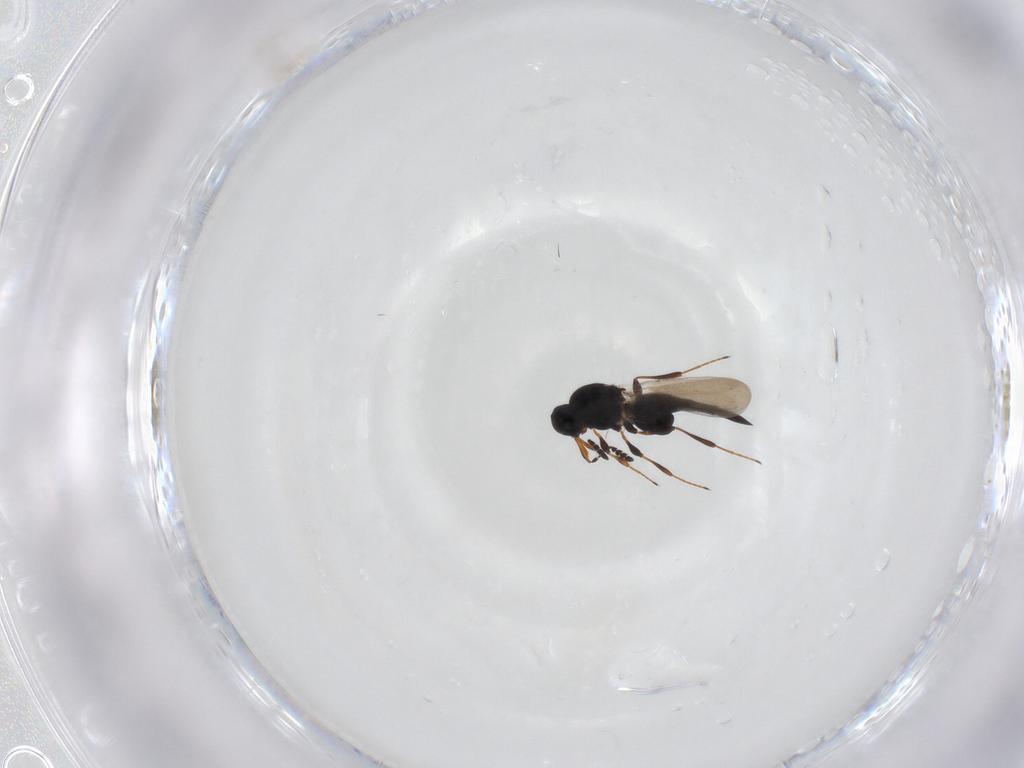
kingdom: Animalia
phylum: Arthropoda
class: Insecta
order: Hymenoptera
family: Platygastridae
